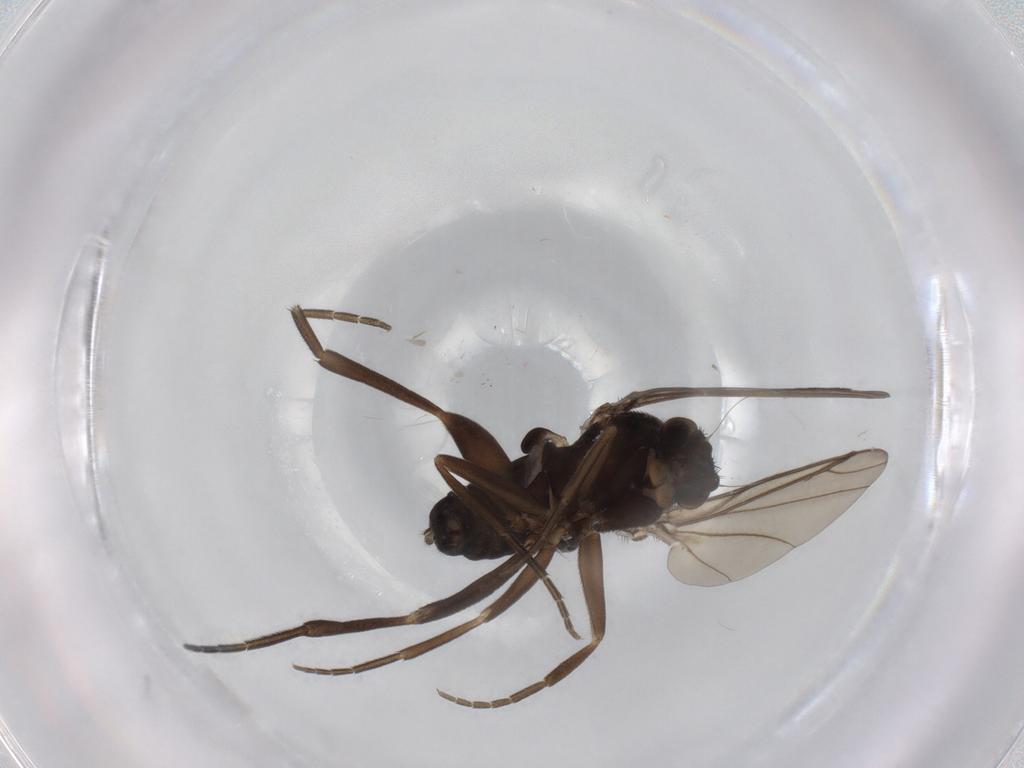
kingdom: Animalia
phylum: Arthropoda
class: Insecta
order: Diptera
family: Phoridae
